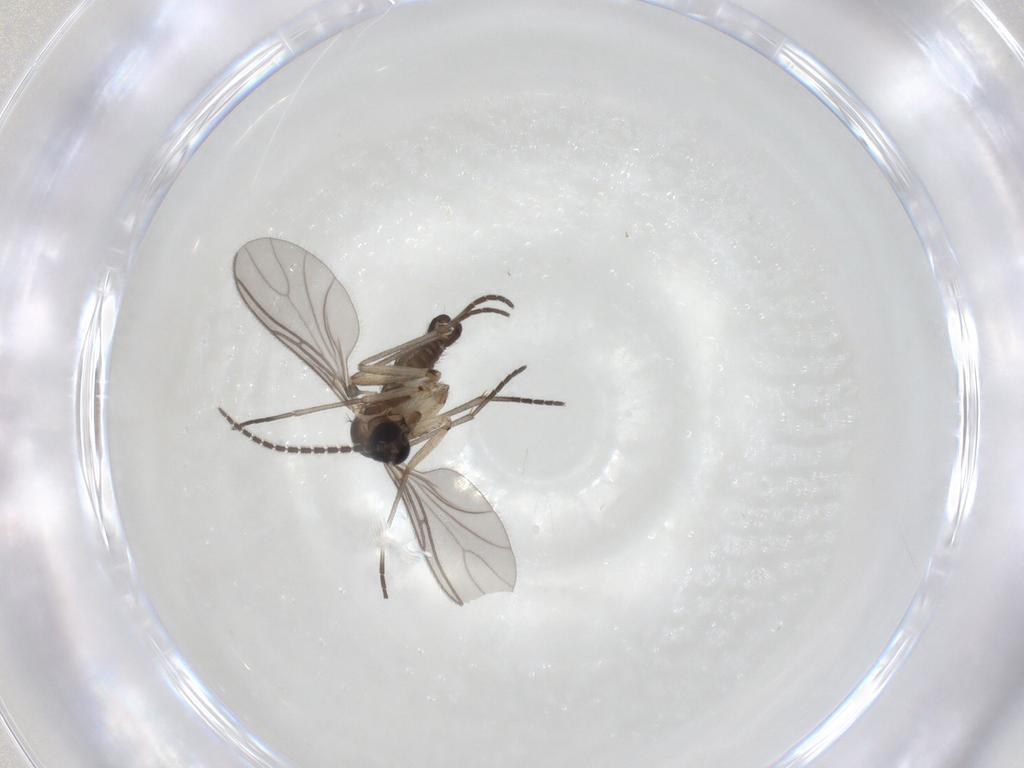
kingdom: Animalia
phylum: Arthropoda
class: Insecta
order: Diptera
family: Sciaridae
